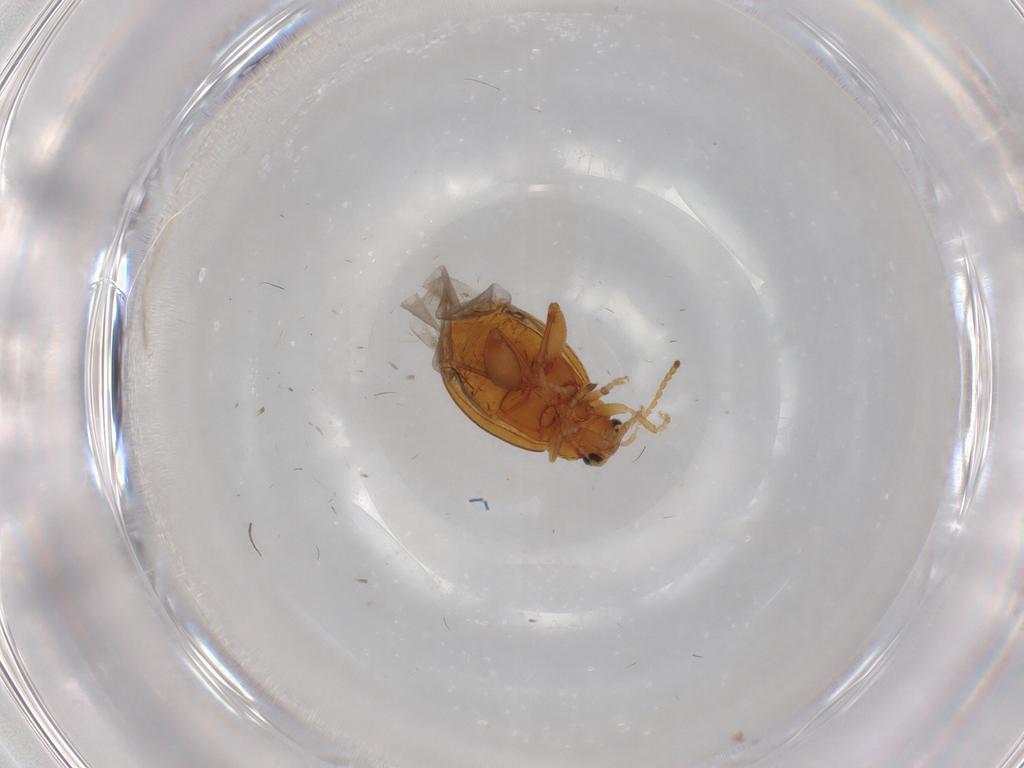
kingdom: Animalia
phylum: Arthropoda
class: Insecta
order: Coleoptera
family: Chrysomelidae
